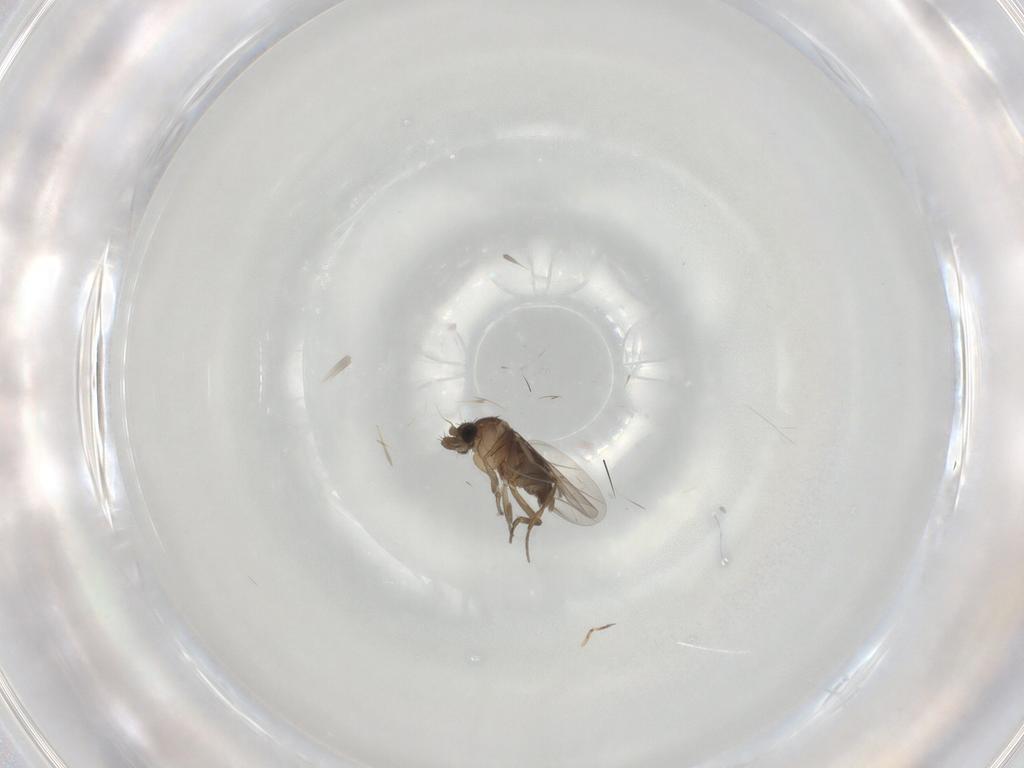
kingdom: Animalia
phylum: Arthropoda
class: Insecta
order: Diptera
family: Phoridae
